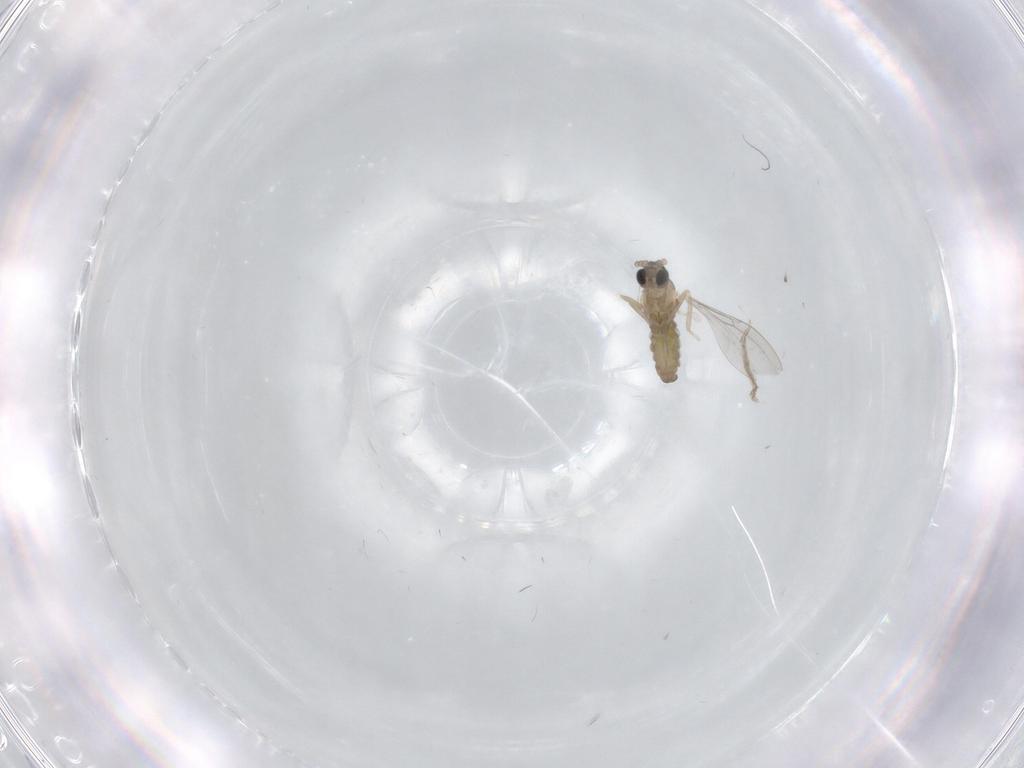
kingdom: Animalia
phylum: Arthropoda
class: Insecta
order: Diptera
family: Cecidomyiidae
